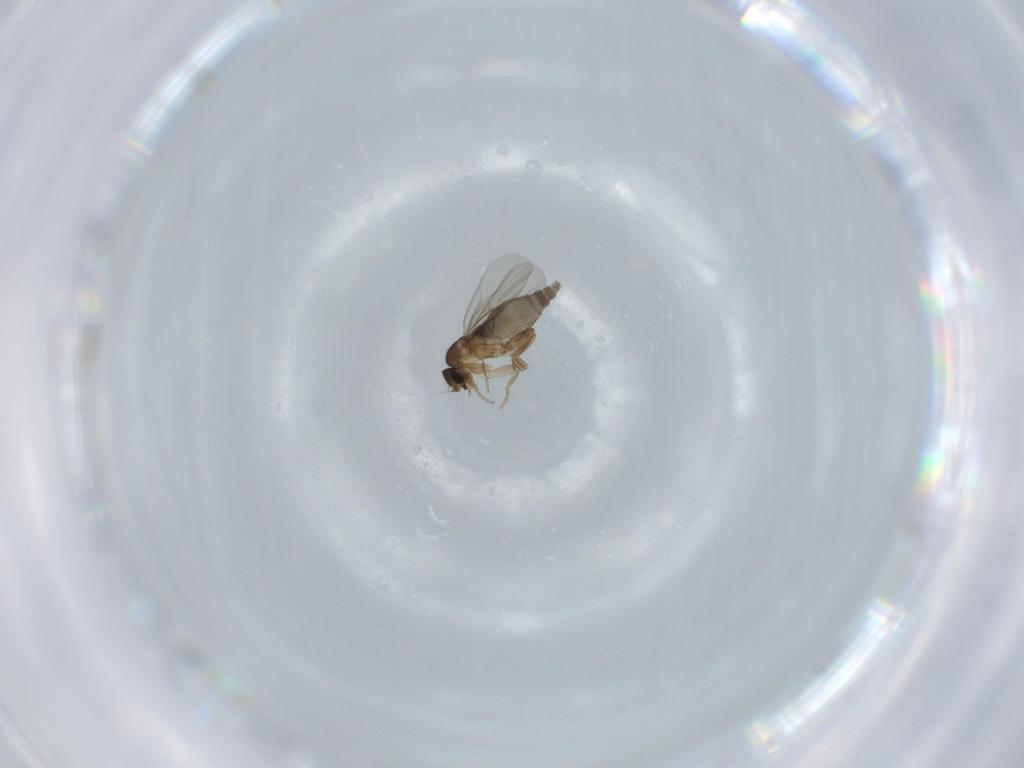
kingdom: Animalia
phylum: Arthropoda
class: Insecta
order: Diptera
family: Phoridae
